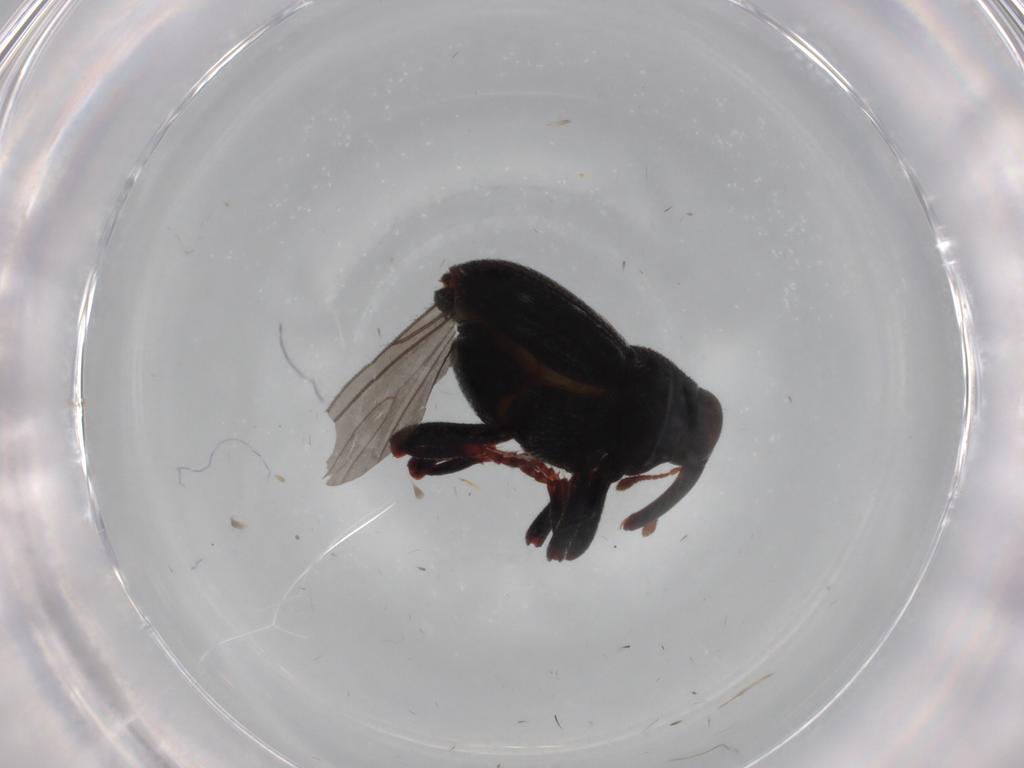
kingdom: Animalia
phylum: Arthropoda
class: Insecta
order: Coleoptera
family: Curculionidae
